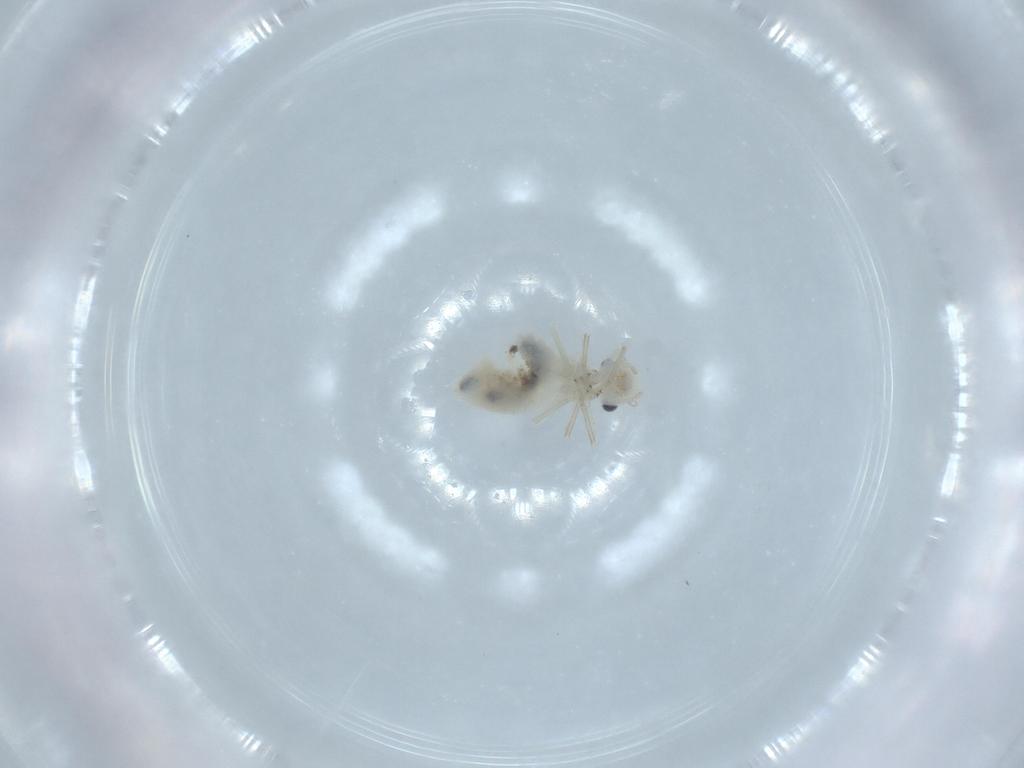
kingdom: Animalia
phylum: Arthropoda
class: Insecta
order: Psocodea
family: Caeciliusidae
